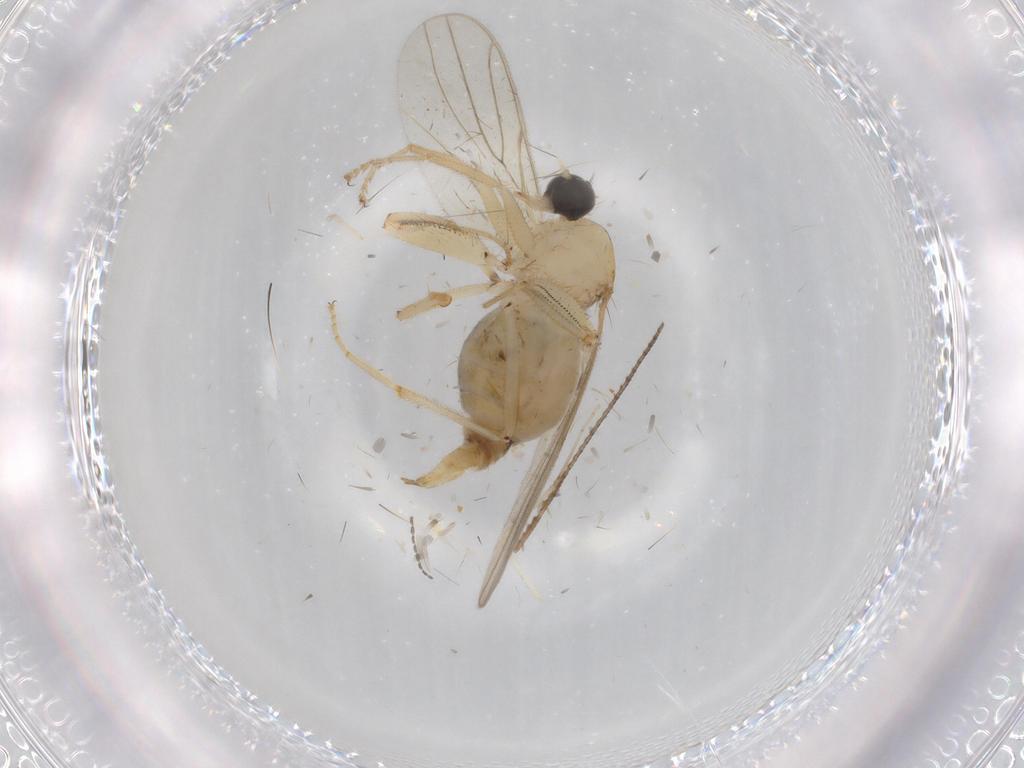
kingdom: Animalia
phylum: Arthropoda
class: Insecta
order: Diptera
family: Hybotidae
